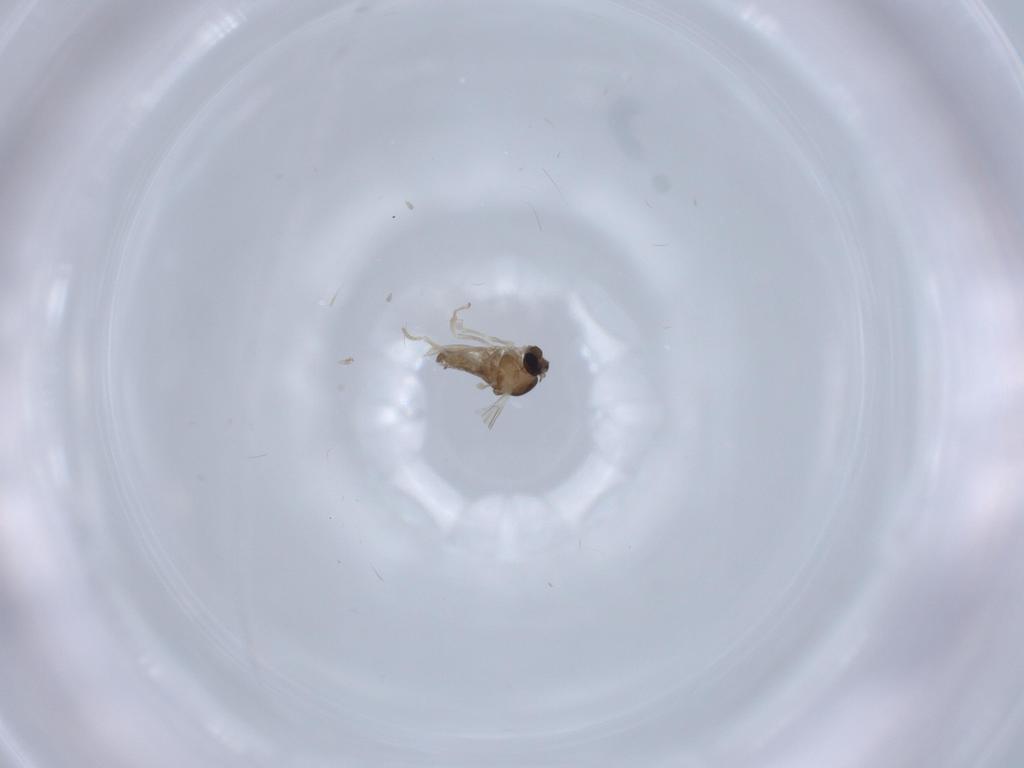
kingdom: Animalia
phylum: Arthropoda
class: Insecta
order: Diptera
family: Cecidomyiidae
